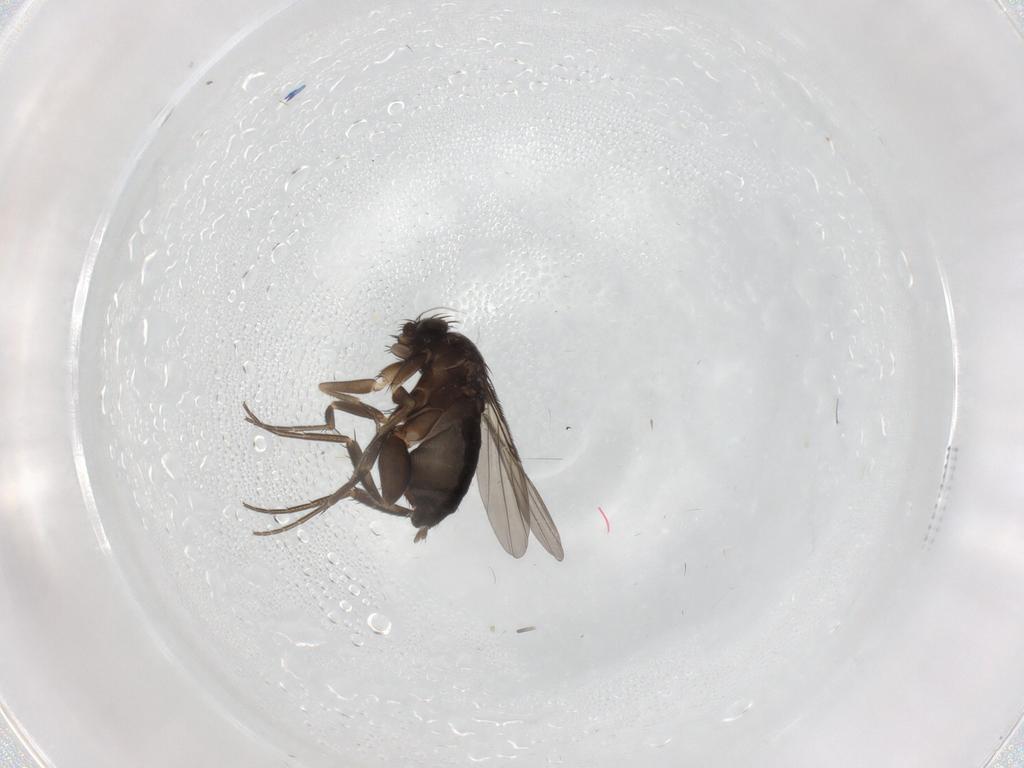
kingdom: Animalia
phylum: Arthropoda
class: Insecta
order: Diptera
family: Phoridae
